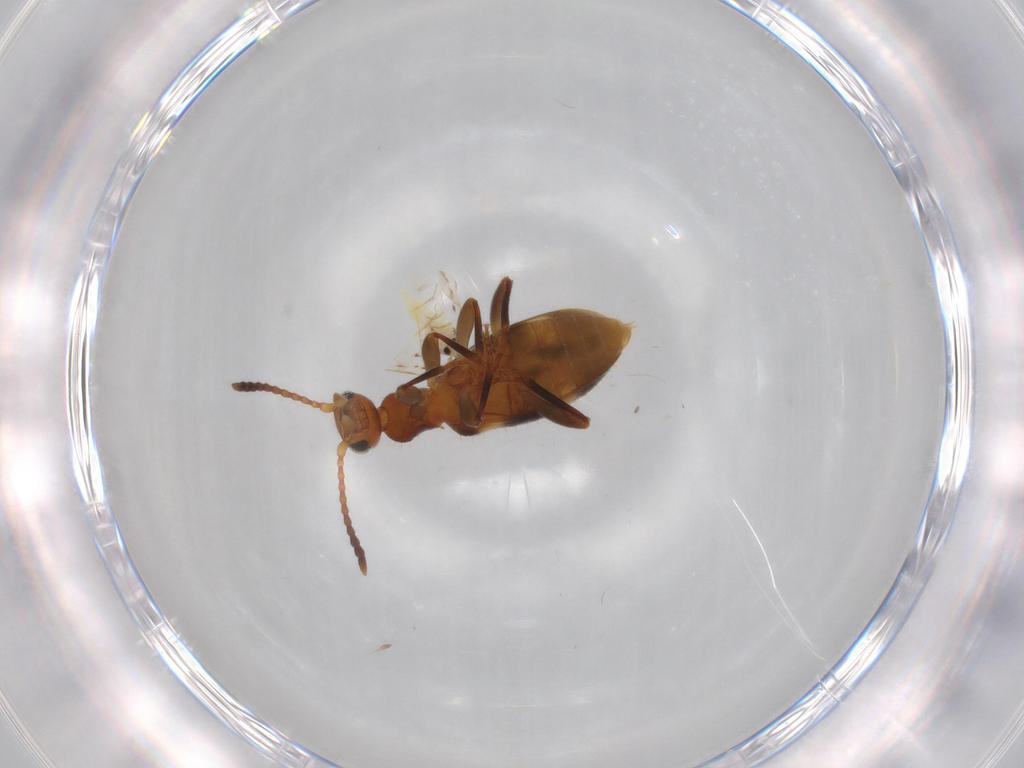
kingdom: Animalia
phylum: Arthropoda
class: Insecta
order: Coleoptera
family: Anthicidae
